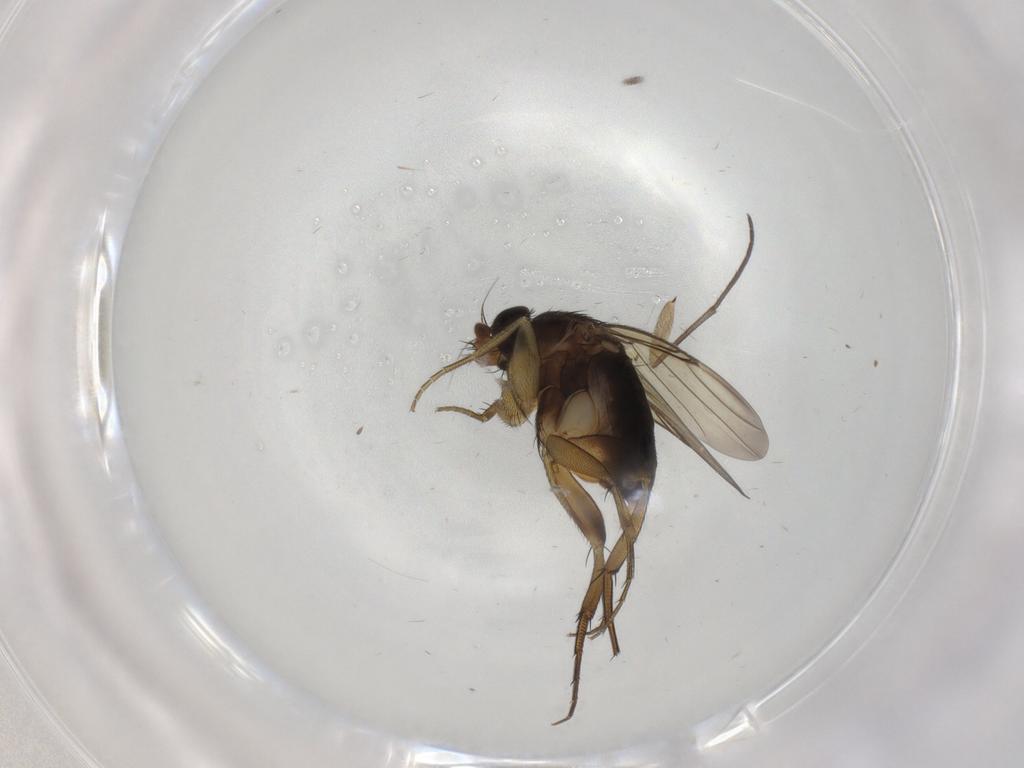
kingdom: Animalia
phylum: Arthropoda
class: Insecta
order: Diptera
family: Phoridae
